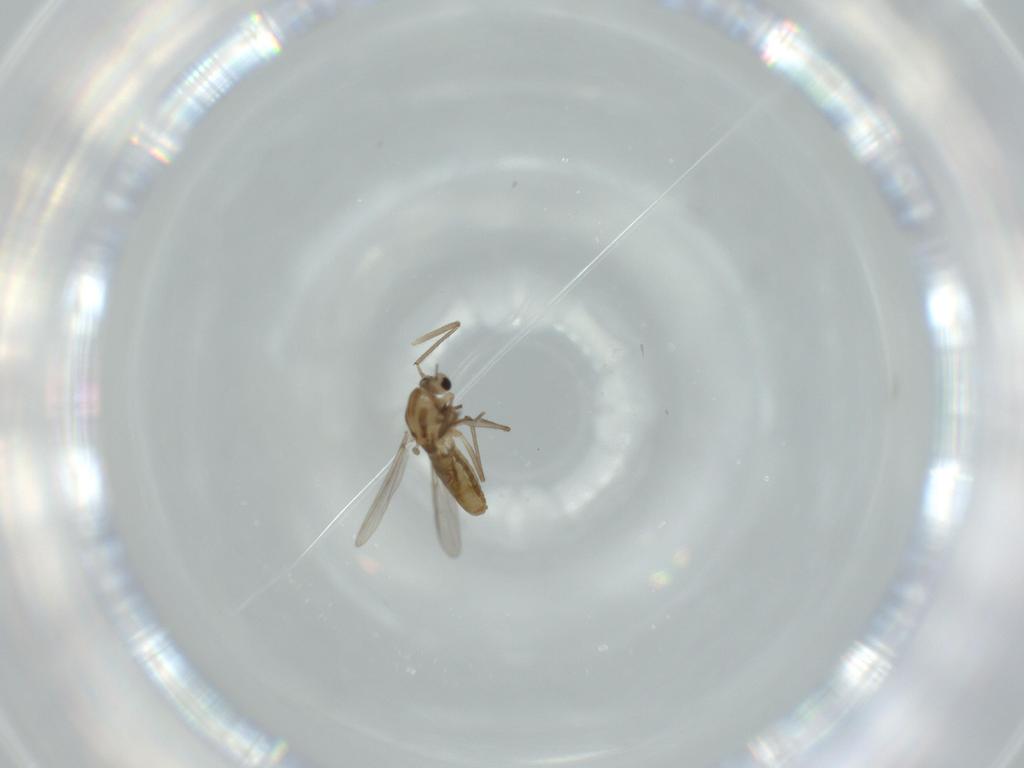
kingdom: Animalia
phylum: Arthropoda
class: Insecta
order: Diptera
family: Chironomidae
